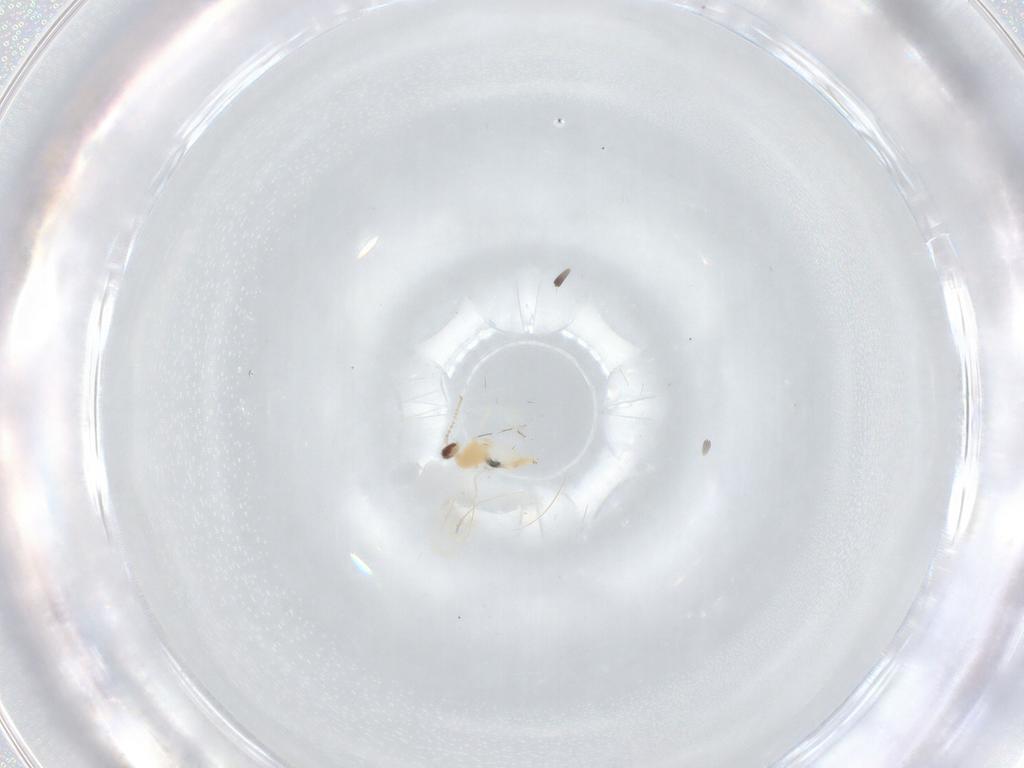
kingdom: Animalia
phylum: Arthropoda
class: Insecta
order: Diptera
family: Cecidomyiidae
